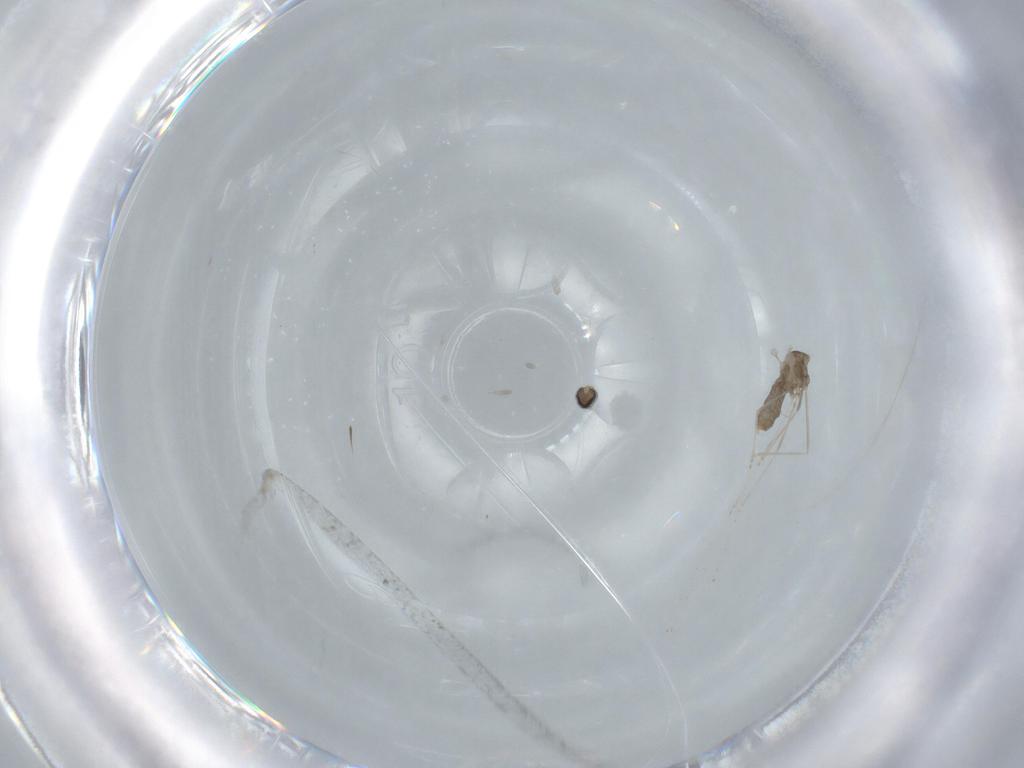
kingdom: Animalia
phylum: Arthropoda
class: Insecta
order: Diptera
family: Cecidomyiidae
